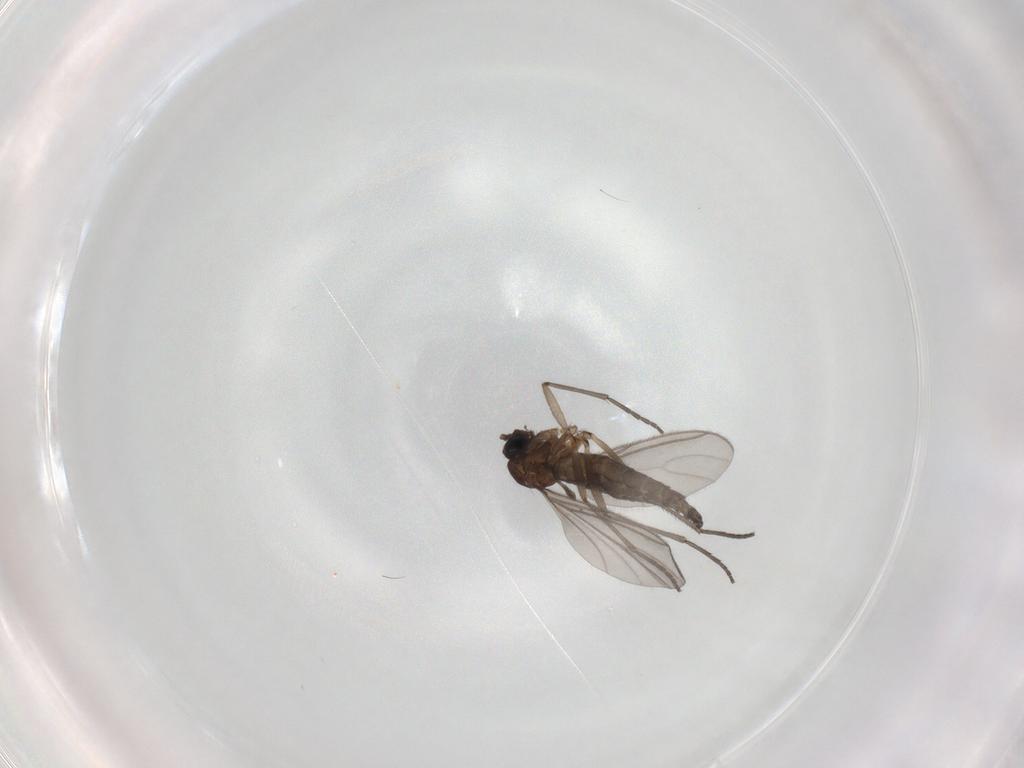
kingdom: Animalia
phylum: Arthropoda
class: Insecta
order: Diptera
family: Sciaridae
